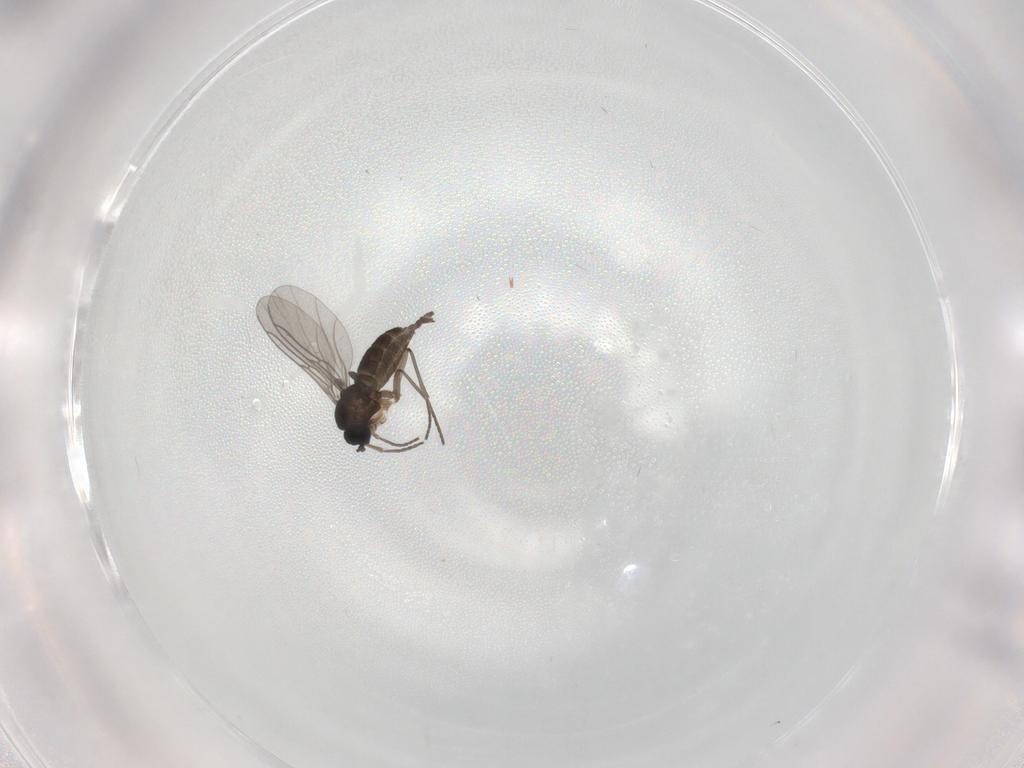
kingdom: Animalia
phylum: Arthropoda
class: Insecta
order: Diptera
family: Sciaridae
